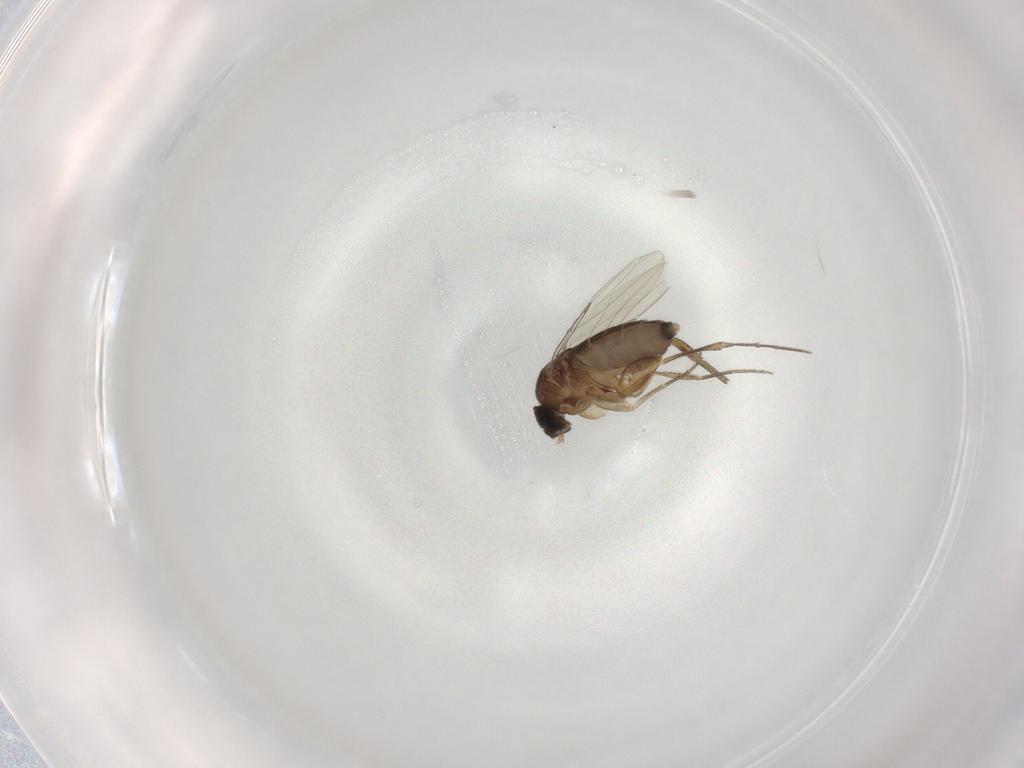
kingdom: Animalia
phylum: Arthropoda
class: Insecta
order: Diptera
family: Phoridae
